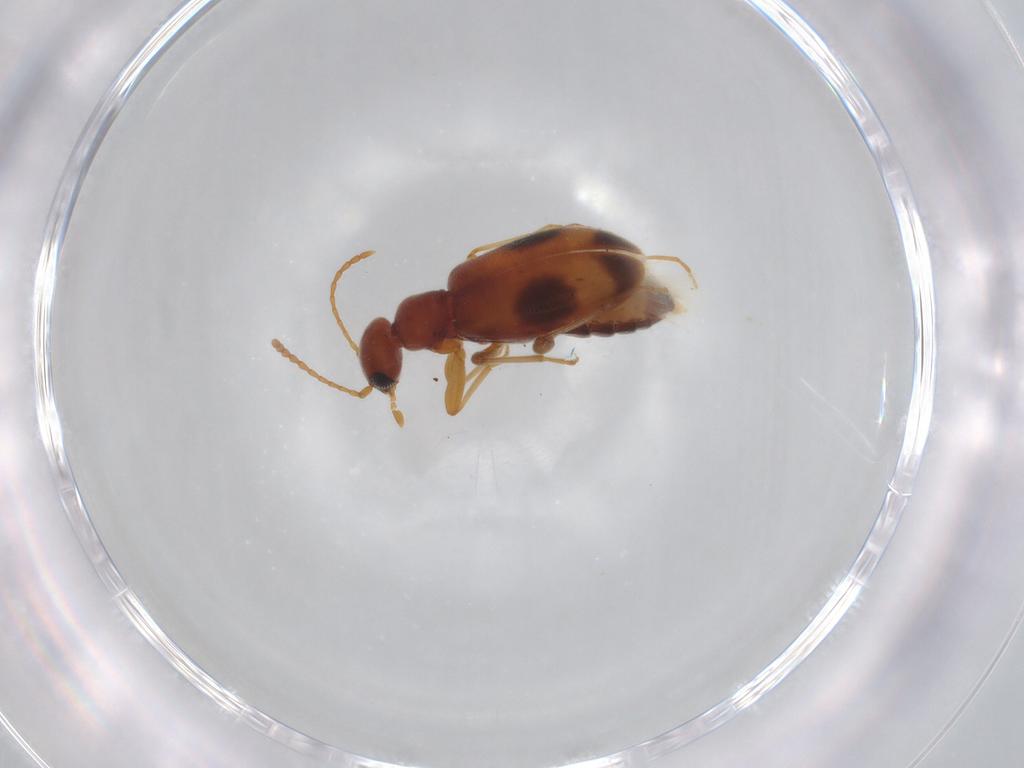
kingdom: Animalia
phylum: Arthropoda
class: Insecta
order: Coleoptera
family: Anthicidae
